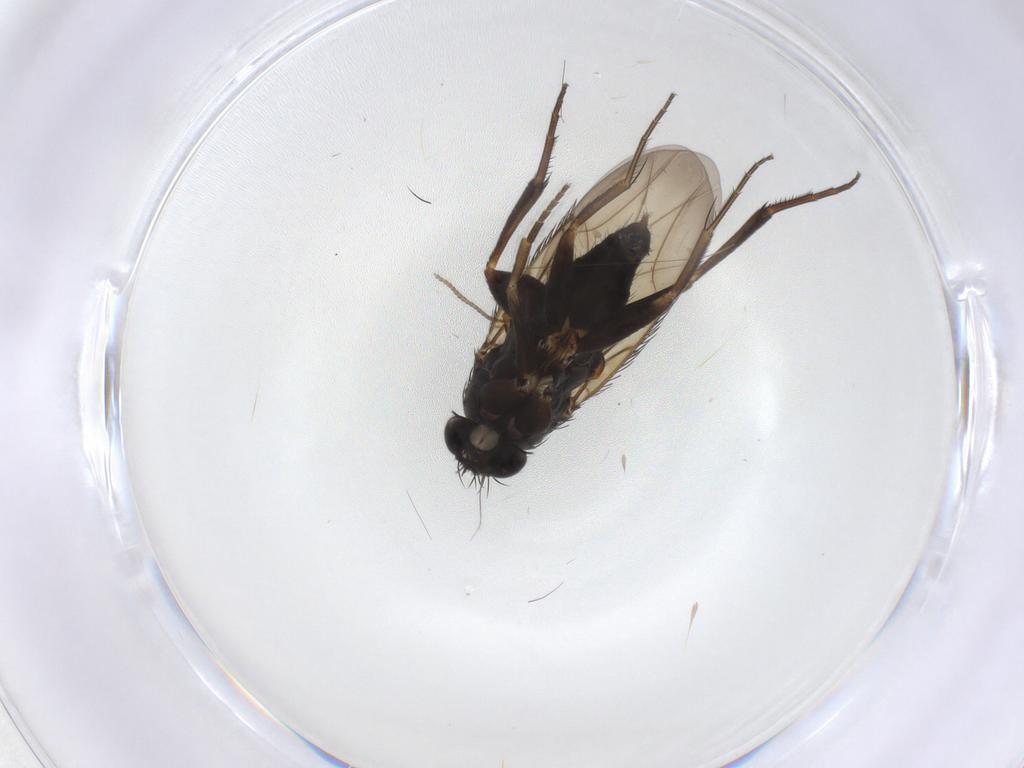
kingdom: Animalia
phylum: Arthropoda
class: Insecta
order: Diptera
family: Phoridae
